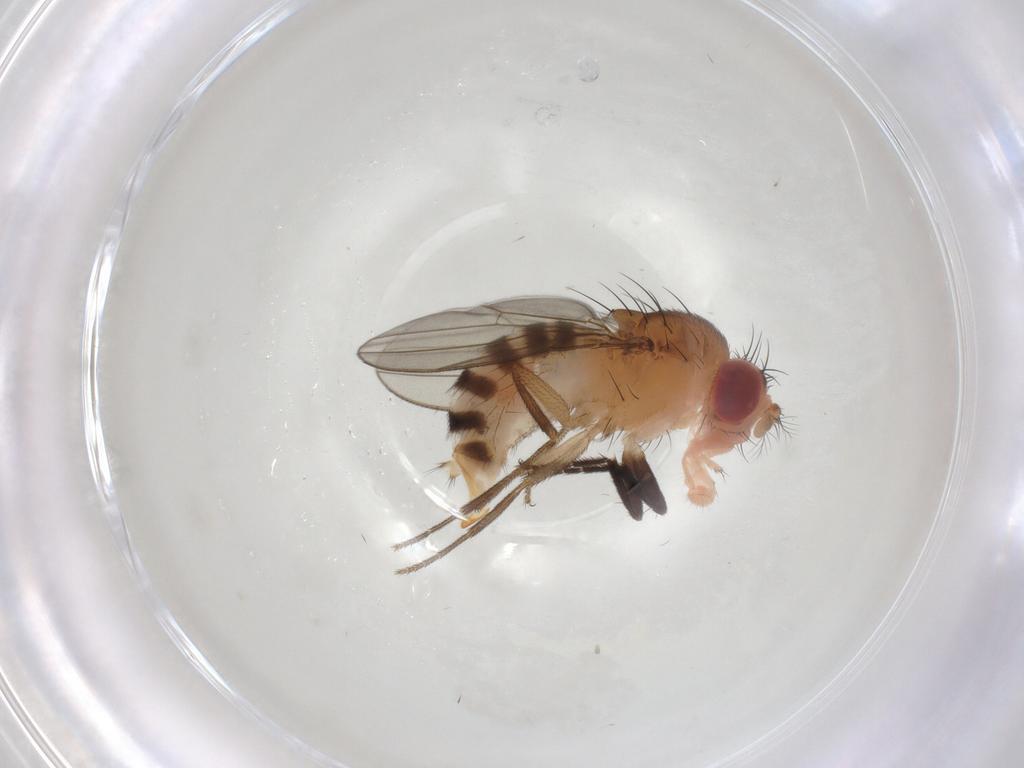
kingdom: Animalia
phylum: Arthropoda
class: Insecta
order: Diptera
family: Drosophilidae
